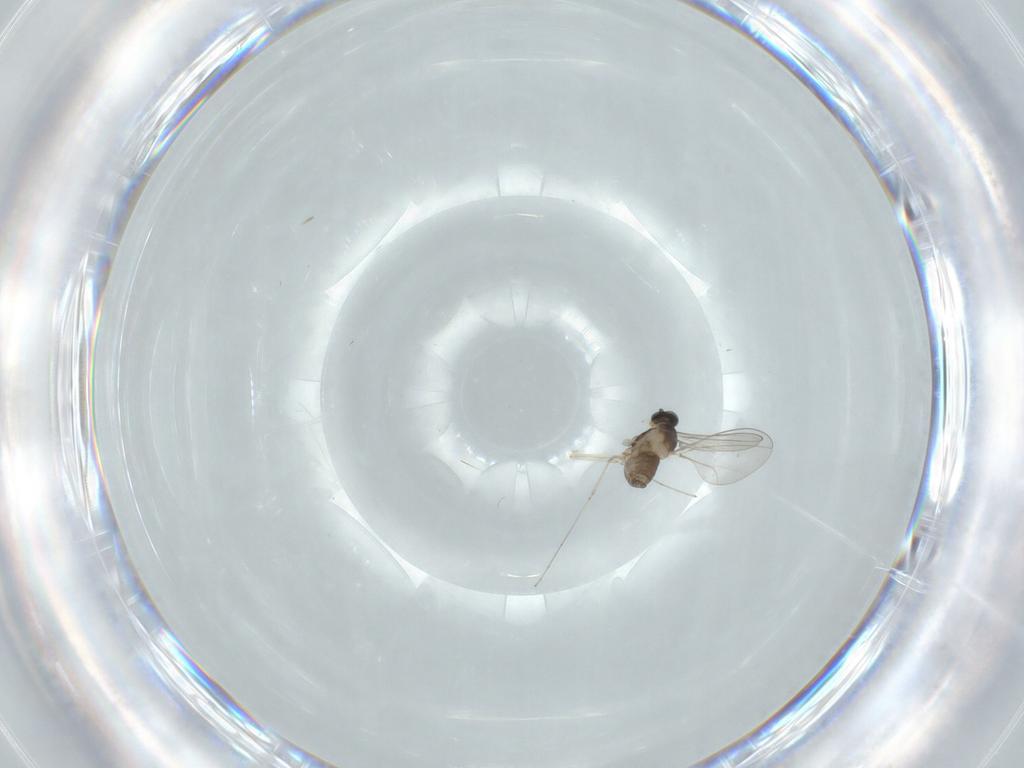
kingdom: Animalia
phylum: Arthropoda
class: Insecta
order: Diptera
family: Cecidomyiidae
